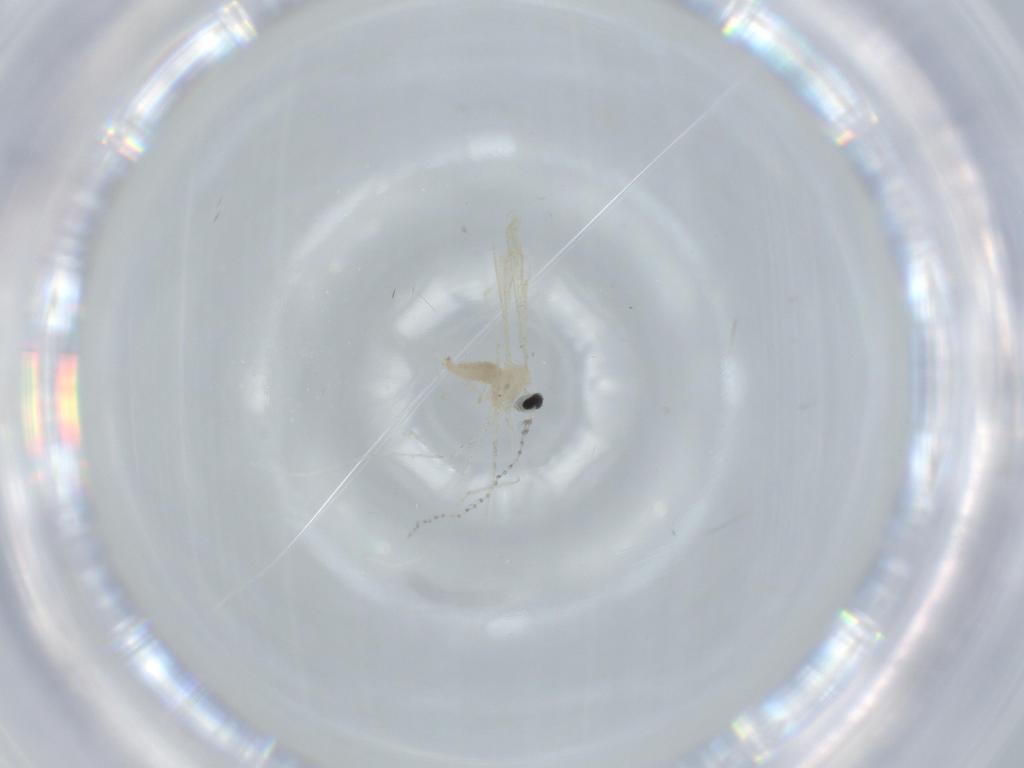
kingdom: Animalia
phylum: Arthropoda
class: Insecta
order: Diptera
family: Cecidomyiidae
